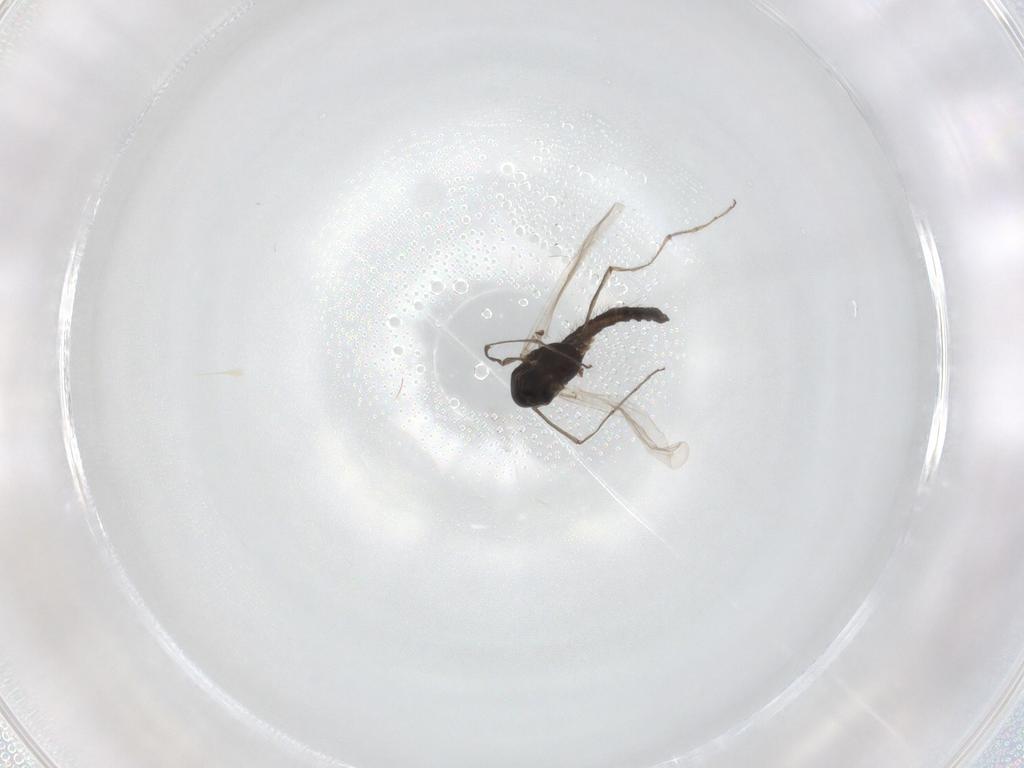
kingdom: Animalia
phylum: Arthropoda
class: Insecta
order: Diptera
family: Chironomidae
